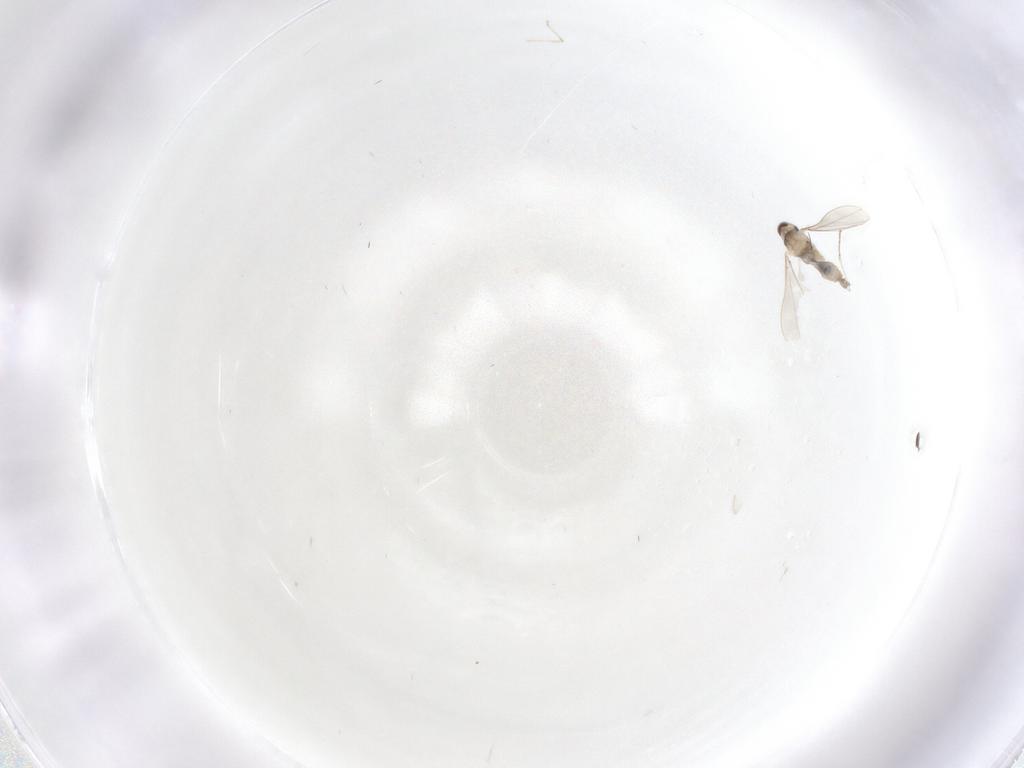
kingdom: Animalia
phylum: Arthropoda
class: Insecta
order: Diptera
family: Cecidomyiidae
